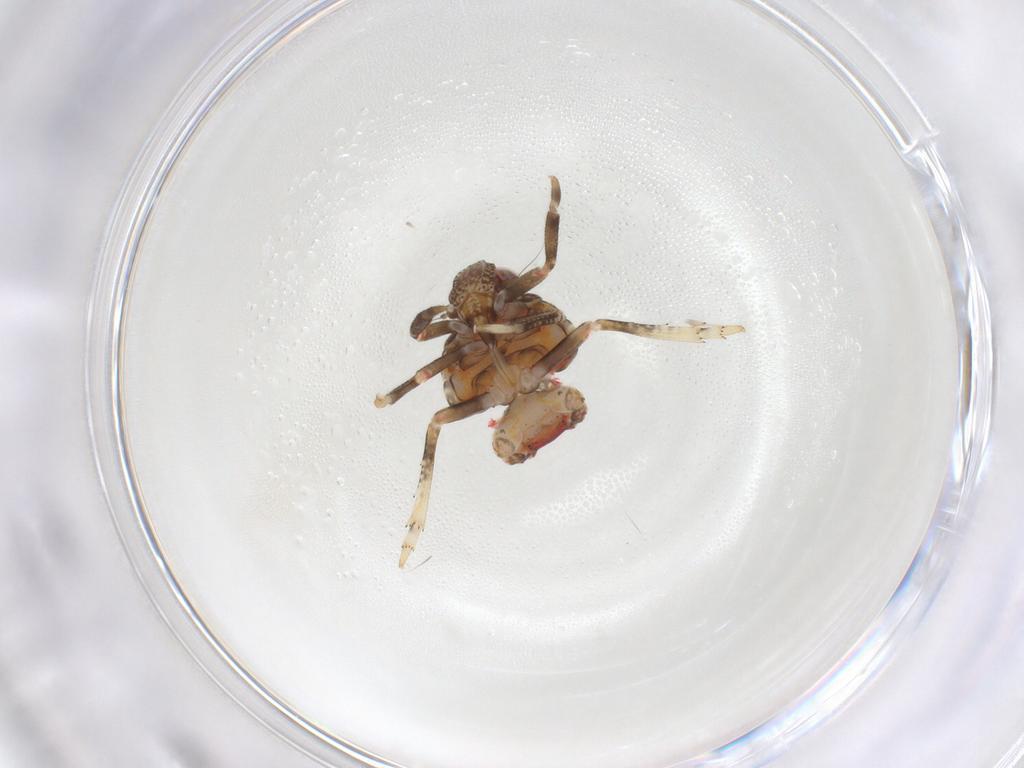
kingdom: Animalia
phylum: Arthropoda
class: Insecta
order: Hemiptera
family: Tropiduchidae
